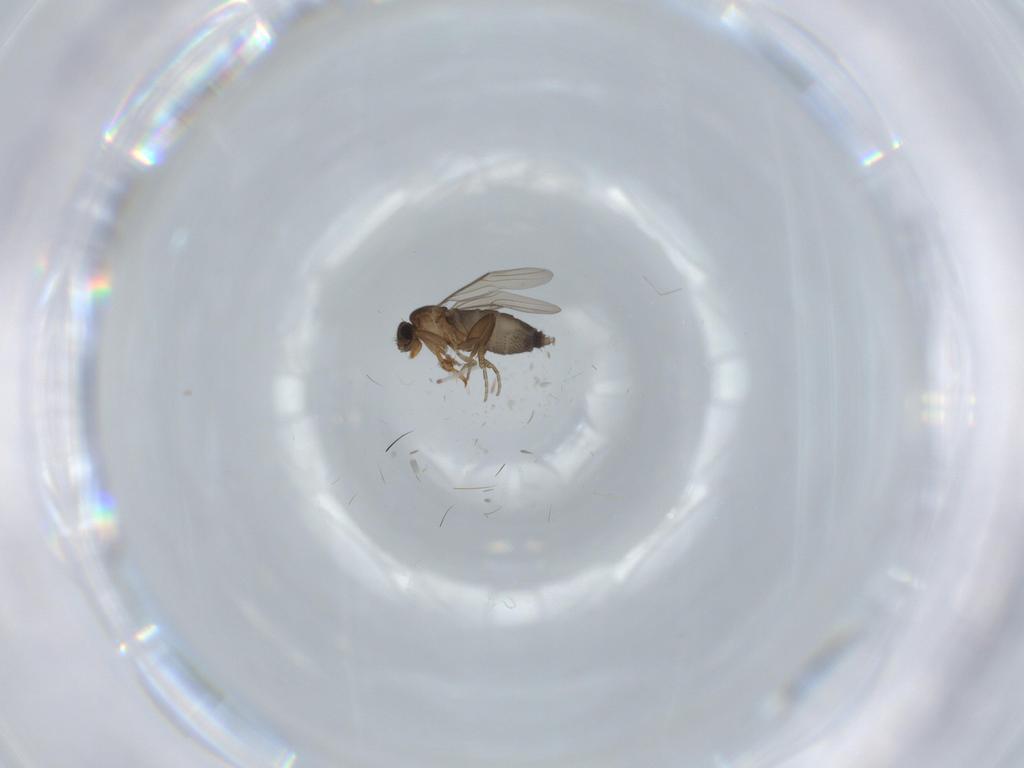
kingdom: Animalia
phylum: Arthropoda
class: Insecta
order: Diptera
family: Phoridae
